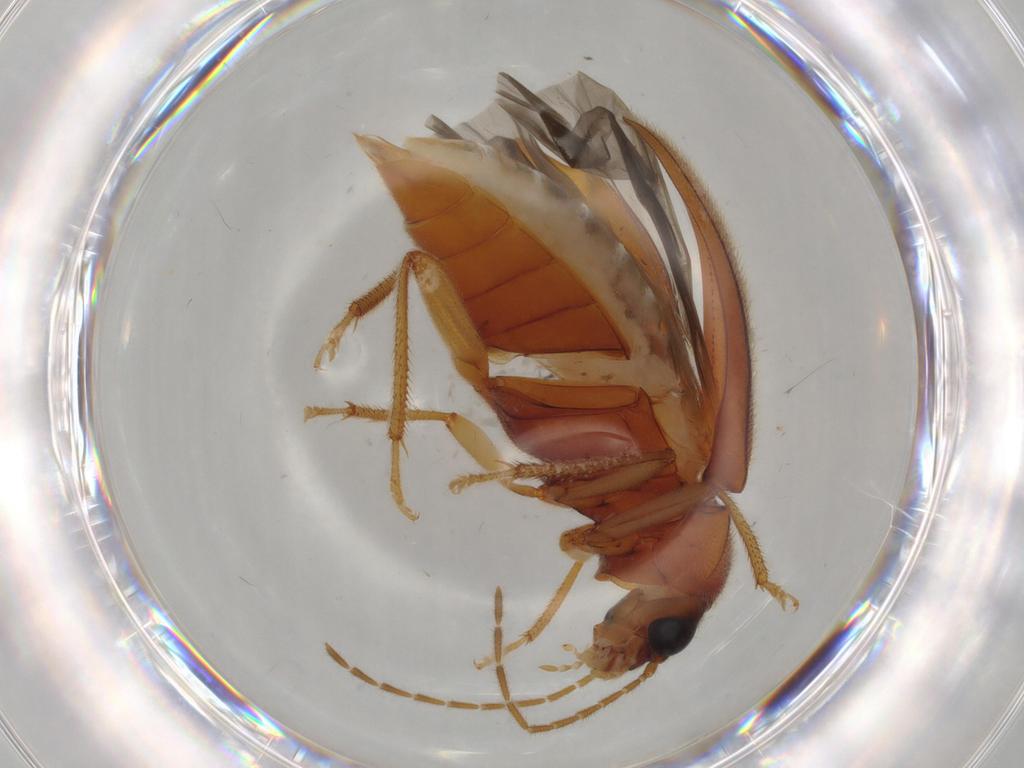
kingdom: Animalia
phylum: Arthropoda
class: Insecta
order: Coleoptera
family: Ptilodactylidae
